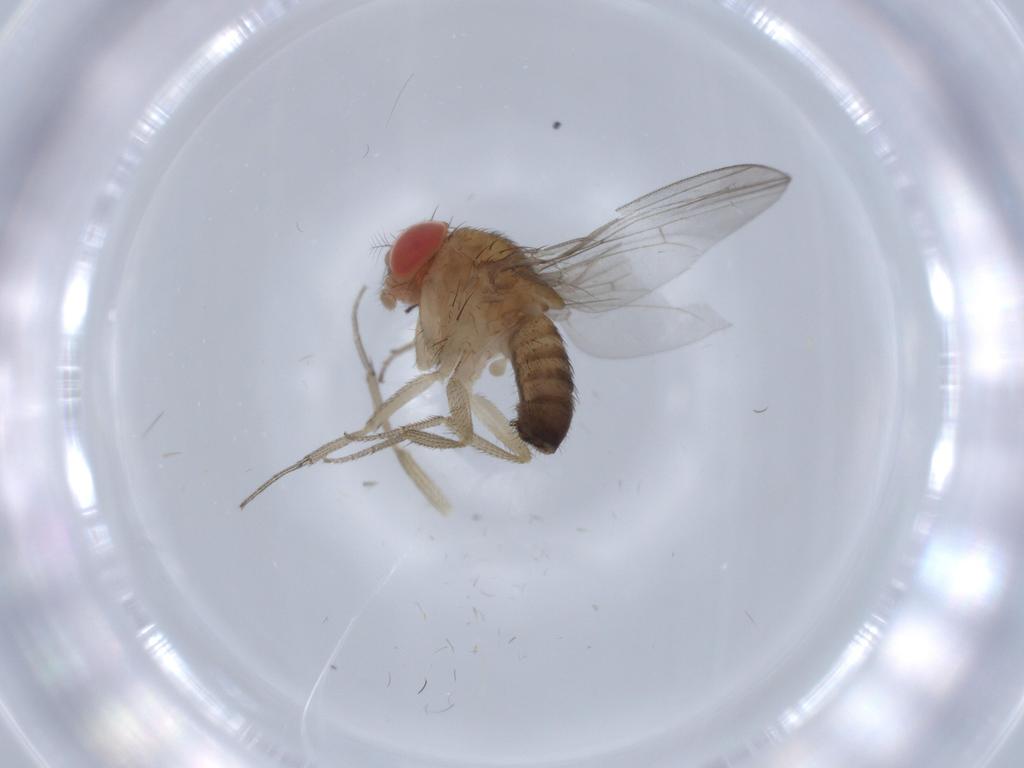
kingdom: Animalia
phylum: Arthropoda
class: Insecta
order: Diptera
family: Drosophilidae
